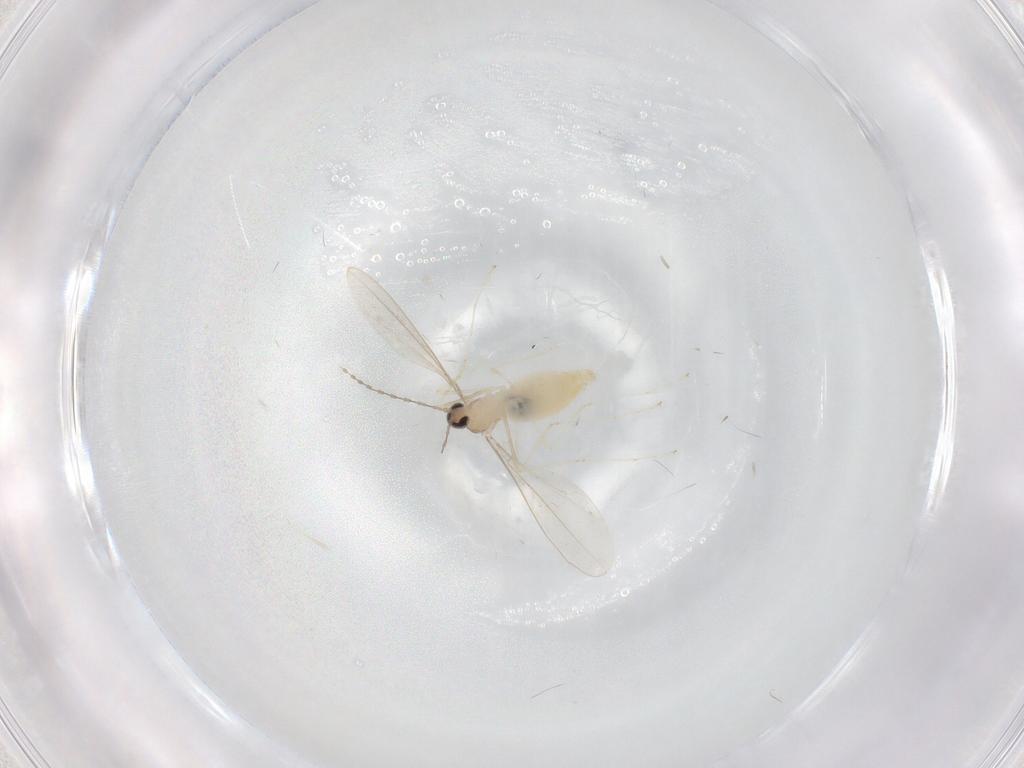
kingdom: Animalia
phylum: Arthropoda
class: Insecta
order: Diptera
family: Cecidomyiidae
